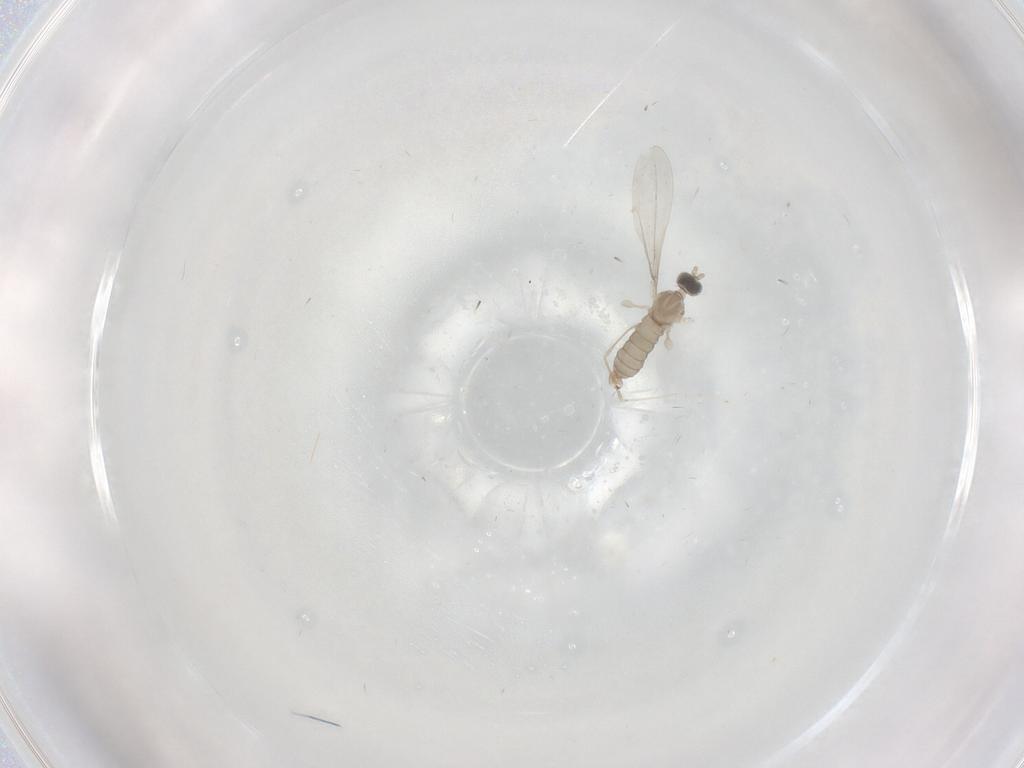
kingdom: Animalia
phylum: Arthropoda
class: Insecta
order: Diptera
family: Cecidomyiidae
